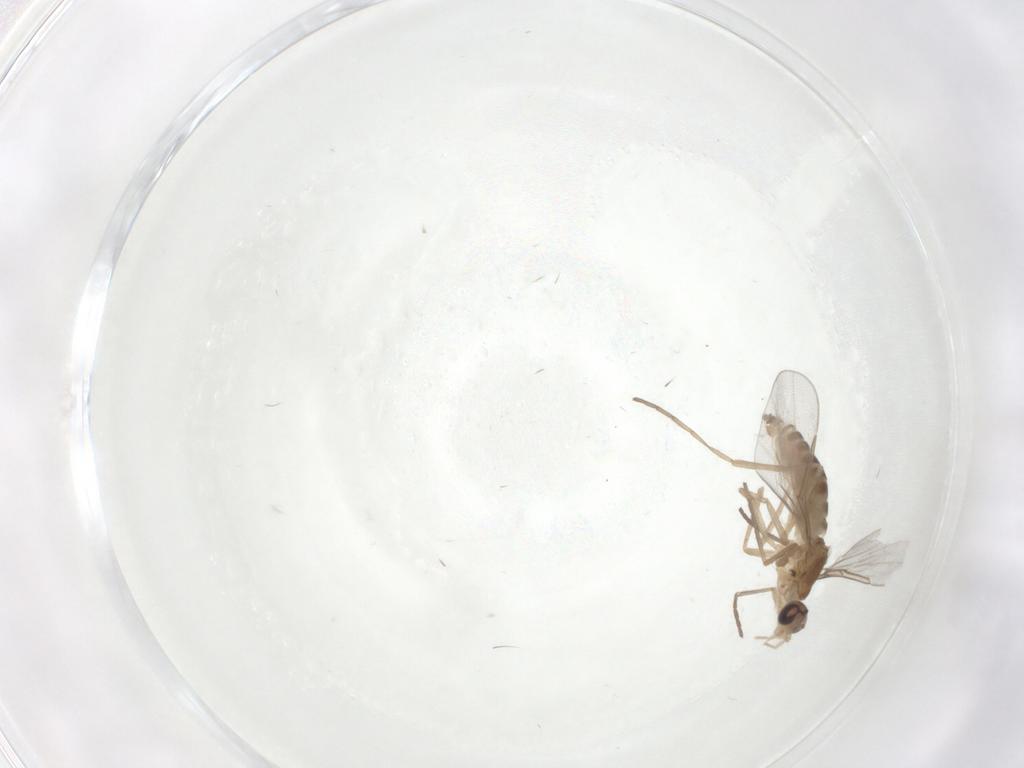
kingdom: Animalia
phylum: Arthropoda
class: Insecta
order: Diptera
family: Cecidomyiidae
